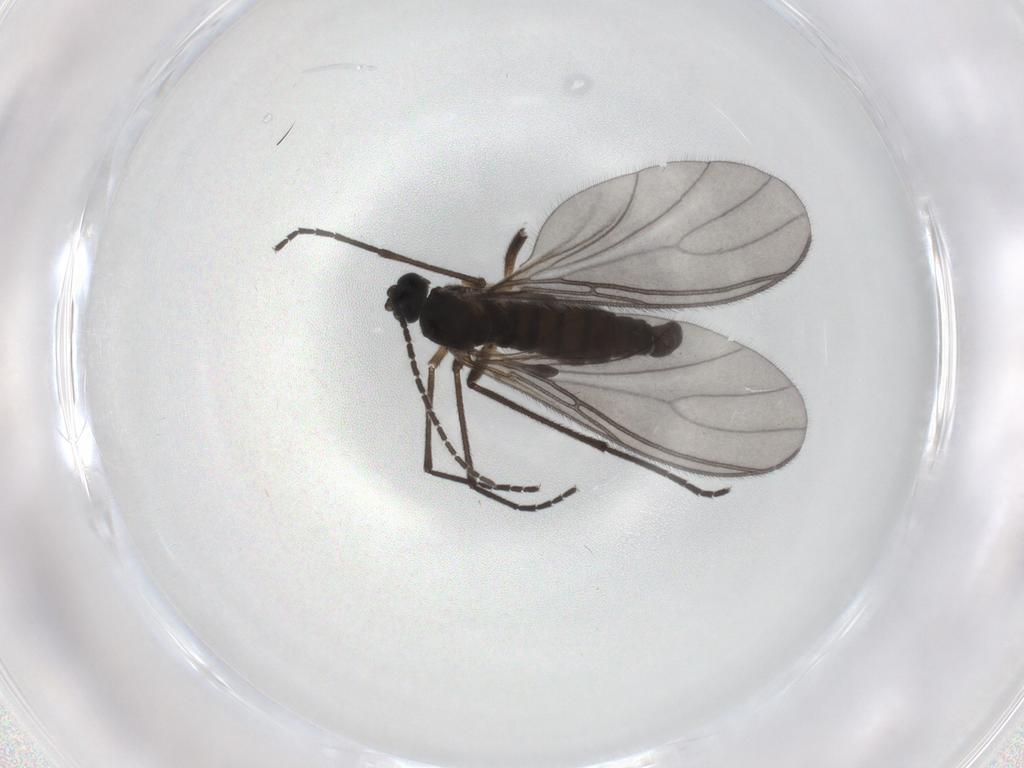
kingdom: Animalia
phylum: Arthropoda
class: Insecta
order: Diptera
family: Sciaridae
